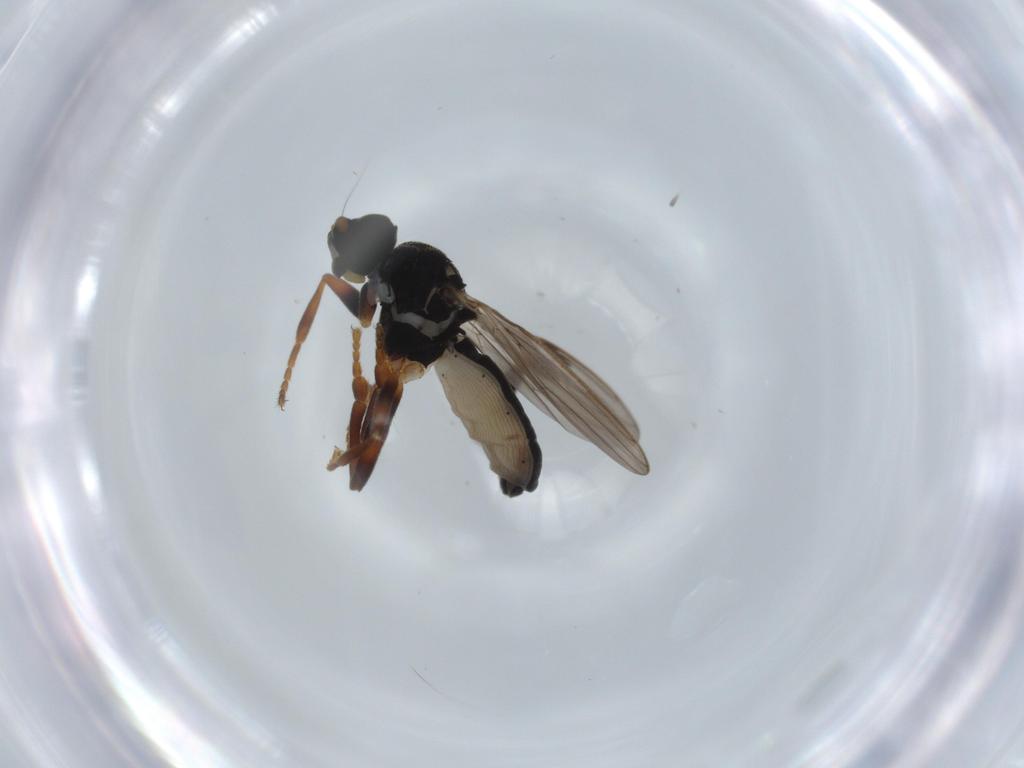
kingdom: Animalia
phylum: Arthropoda
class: Insecta
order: Diptera
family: Sphaeroceridae
